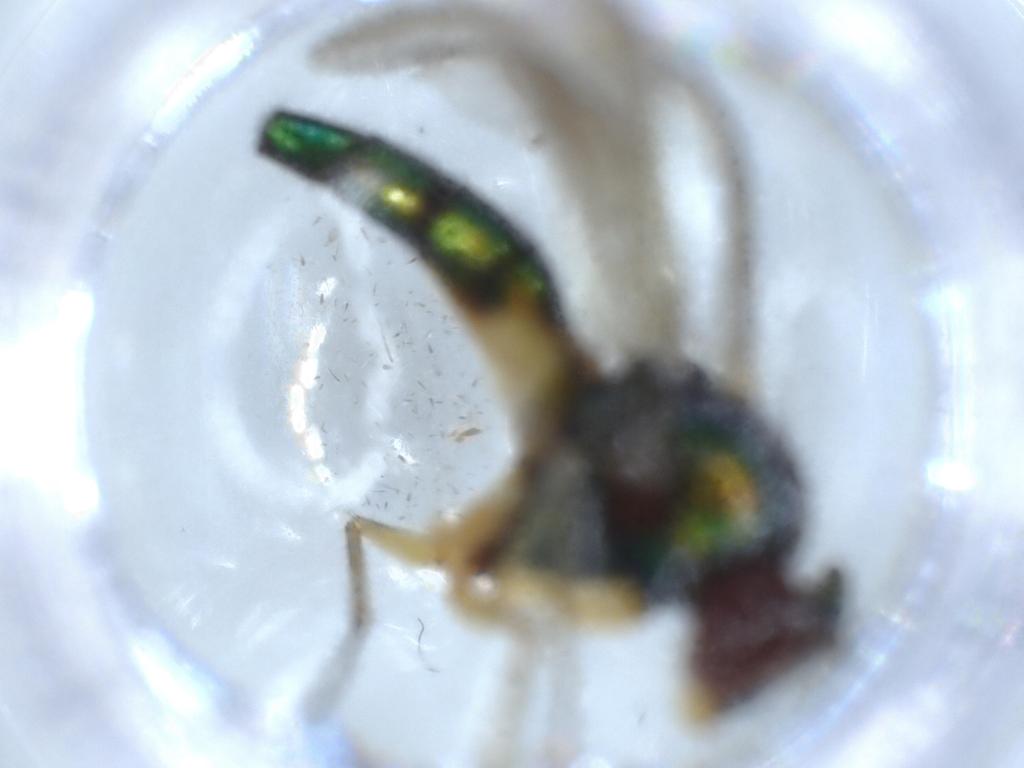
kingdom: Animalia
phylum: Arthropoda
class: Insecta
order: Diptera
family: Dolichopodidae
